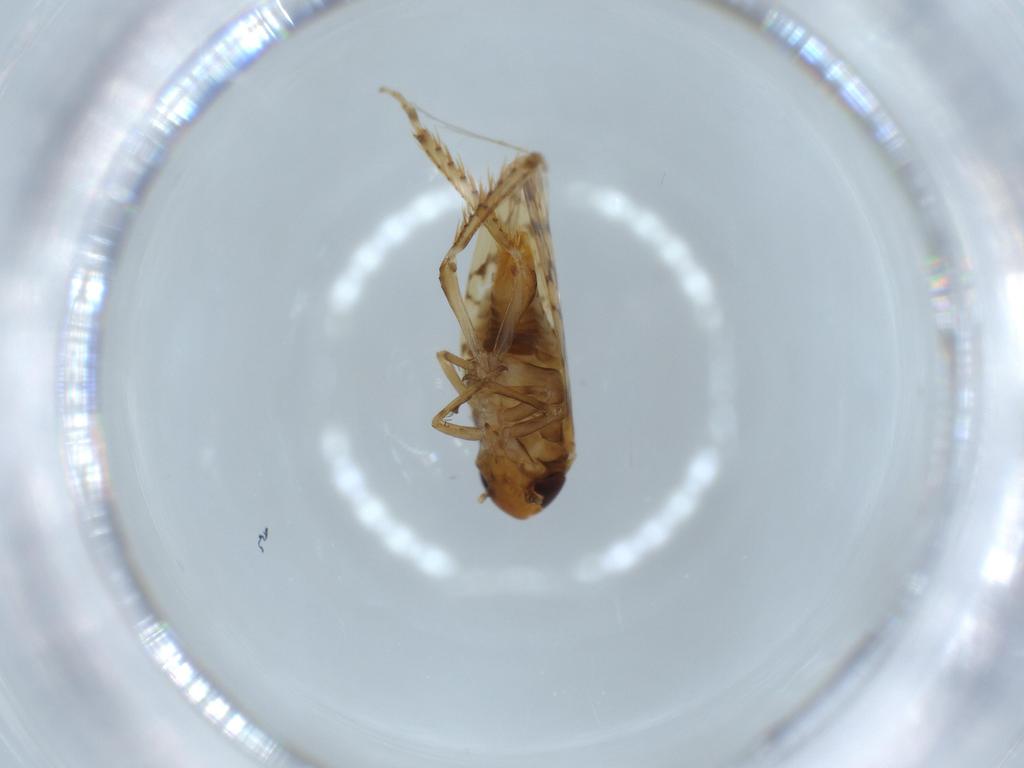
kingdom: Animalia
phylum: Arthropoda
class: Insecta
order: Hemiptera
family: Cicadellidae
